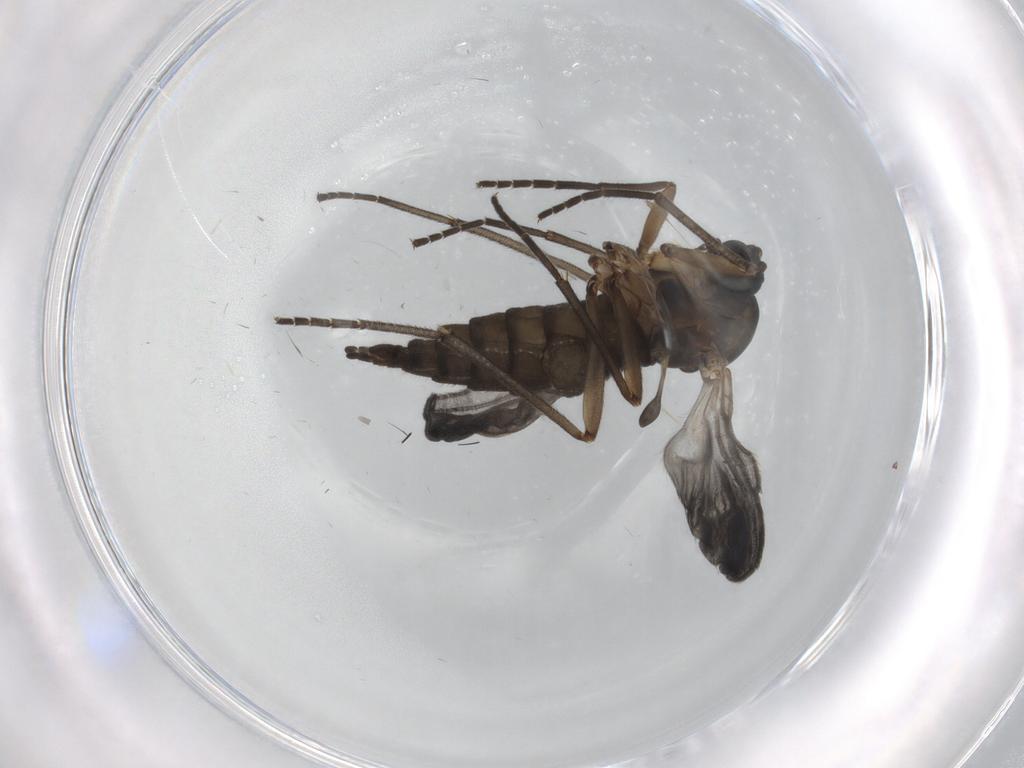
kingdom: Animalia
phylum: Arthropoda
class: Insecta
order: Diptera
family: Sciaridae
